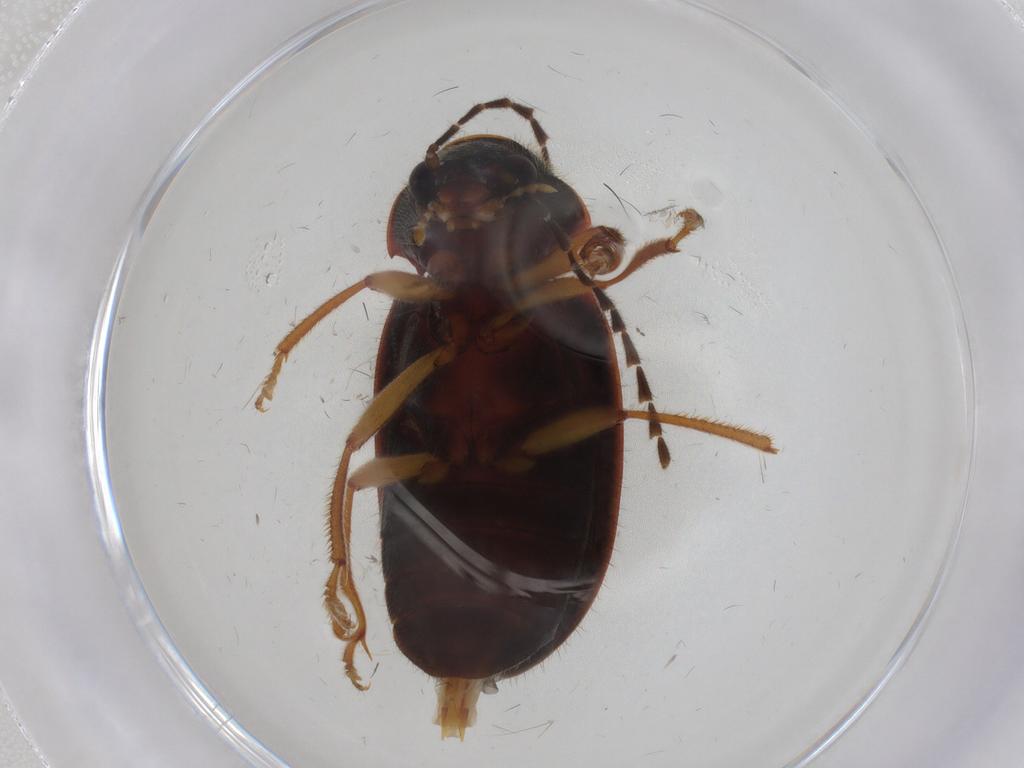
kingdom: Animalia
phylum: Arthropoda
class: Insecta
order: Coleoptera
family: Ptilodactylidae
